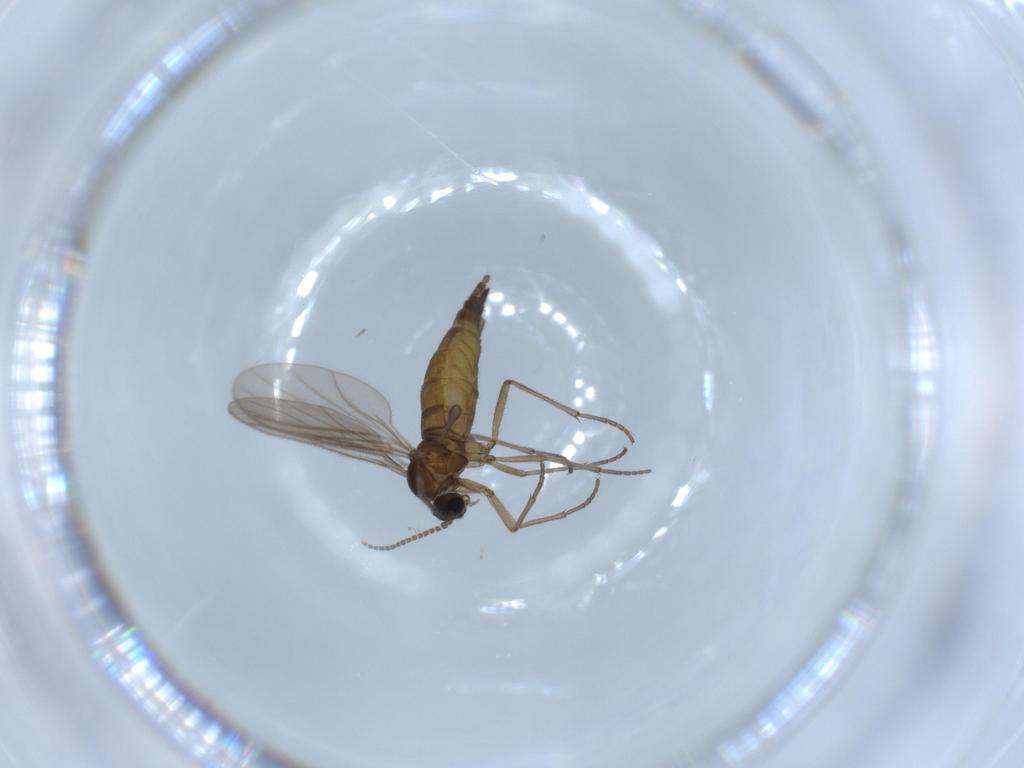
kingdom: Animalia
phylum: Arthropoda
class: Insecta
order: Diptera
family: Sciaridae
